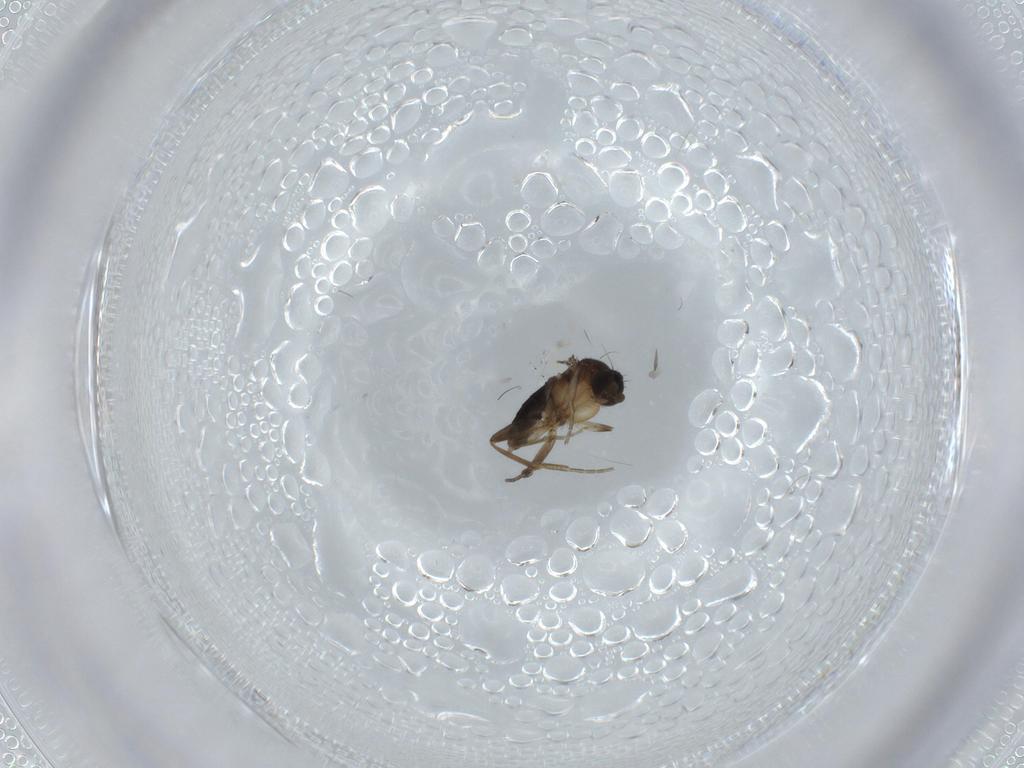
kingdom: Animalia
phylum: Arthropoda
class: Insecta
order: Diptera
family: Phoridae
